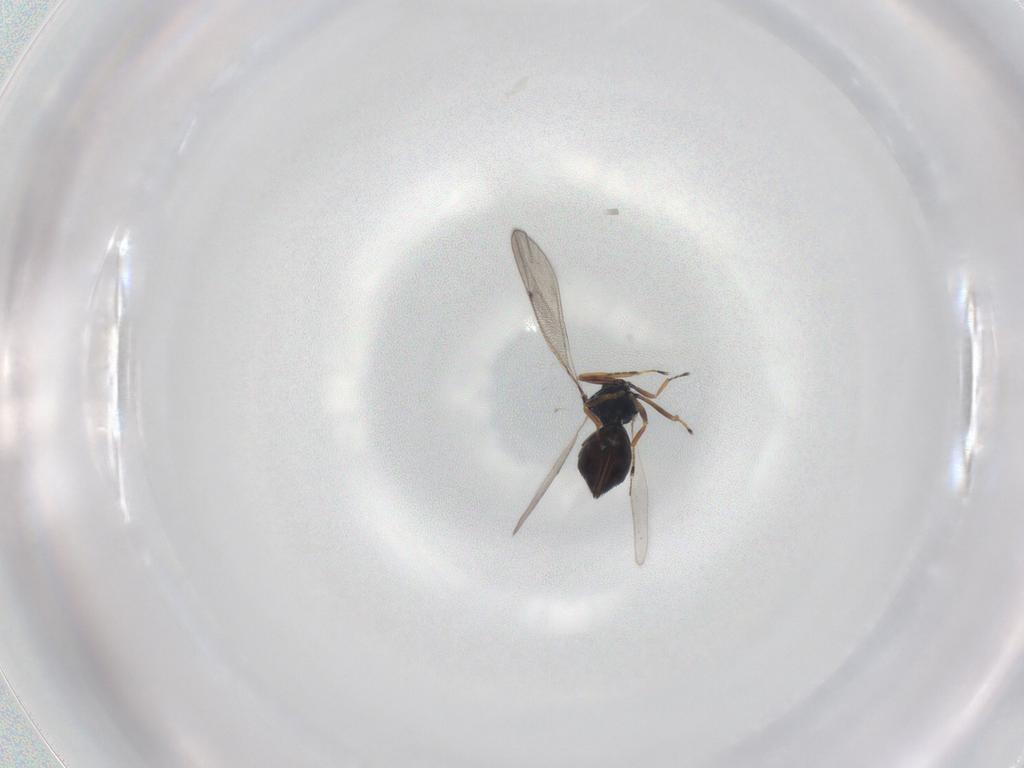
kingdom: Animalia
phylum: Arthropoda
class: Insecta
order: Hymenoptera
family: Eulophidae
